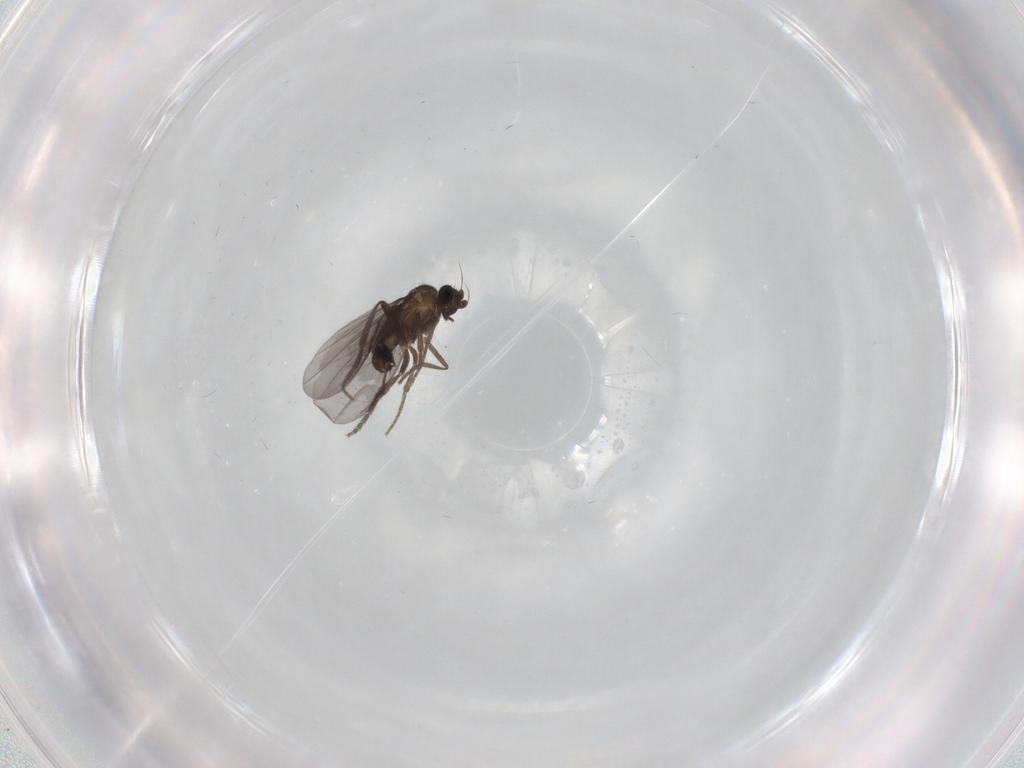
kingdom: Animalia
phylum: Arthropoda
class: Insecta
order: Diptera
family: Phoridae
